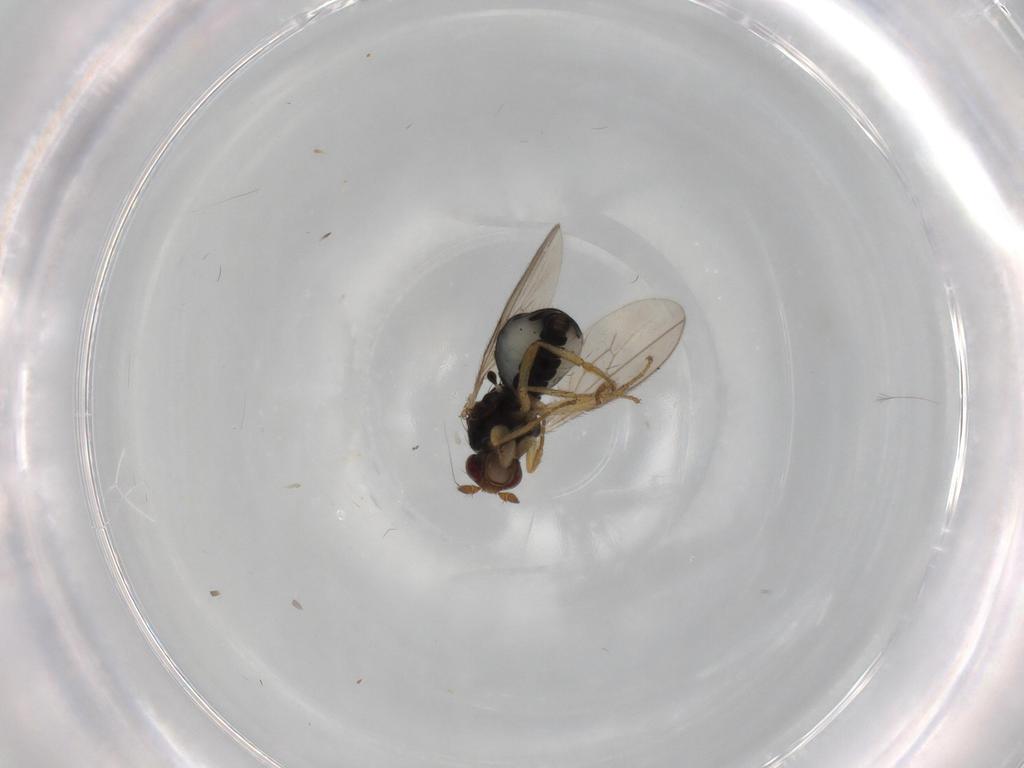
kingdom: Animalia
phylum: Arthropoda
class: Insecta
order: Diptera
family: Sphaeroceridae
